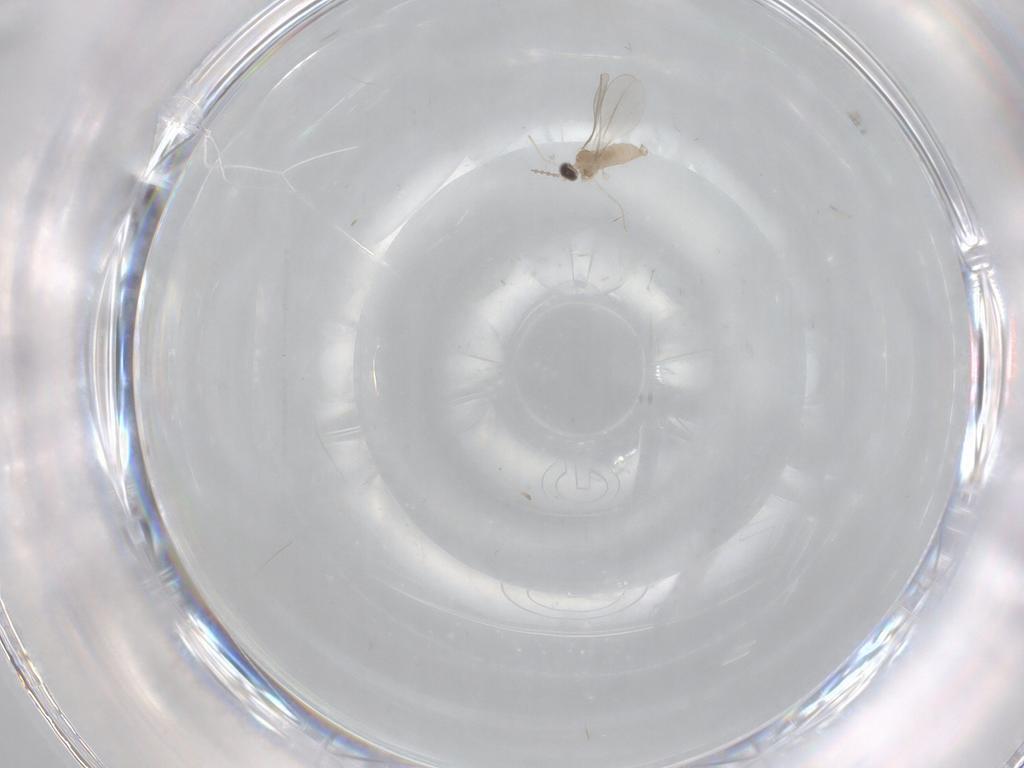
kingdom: Animalia
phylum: Arthropoda
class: Insecta
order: Diptera
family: Cecidomyiidae
